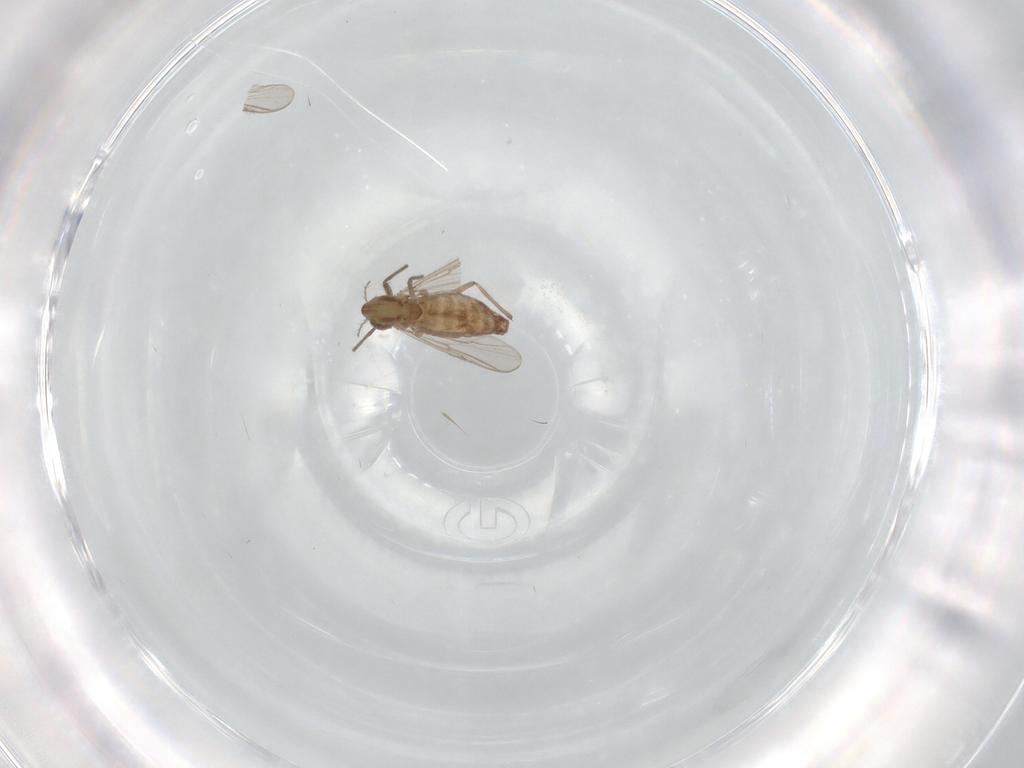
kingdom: Animalia
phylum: Arthropoda
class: Insecta
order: Diptera
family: Chironomidae
